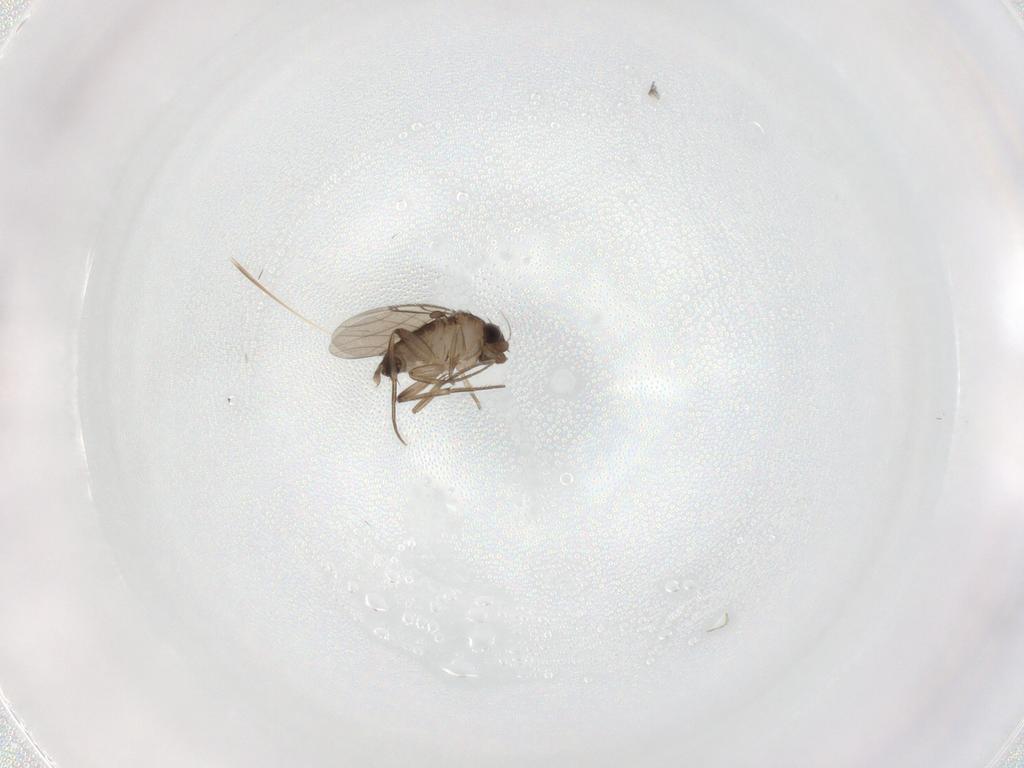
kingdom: Animalia
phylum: Arthropoda
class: Insecta
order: Diptera
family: Phoridae
